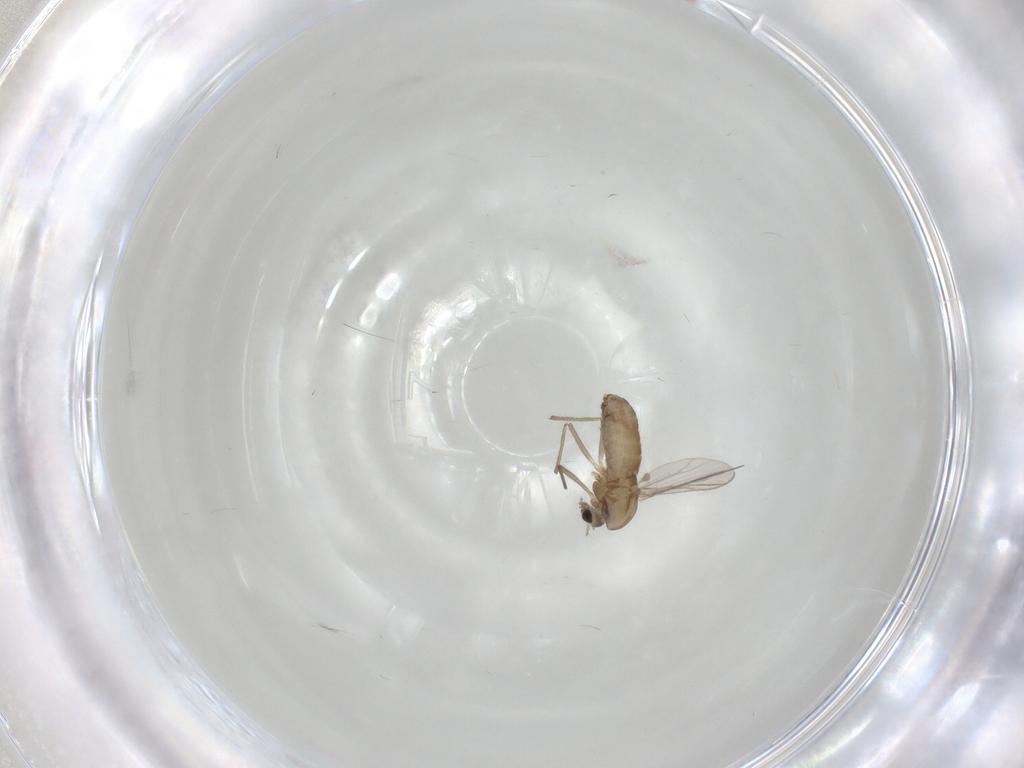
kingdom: Animalia
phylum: Arthropoda
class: Insecta
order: Diptera
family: Chironomidae
